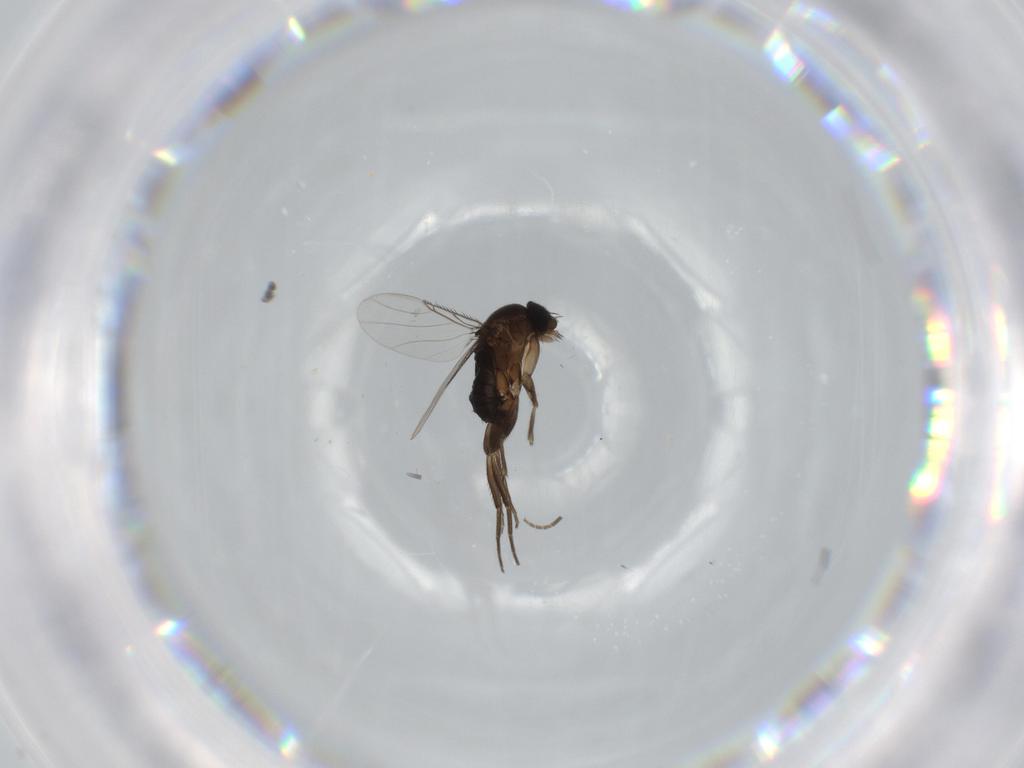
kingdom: Animalia
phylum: Arthropoda
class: Insecta
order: Diptera
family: Phoridae
